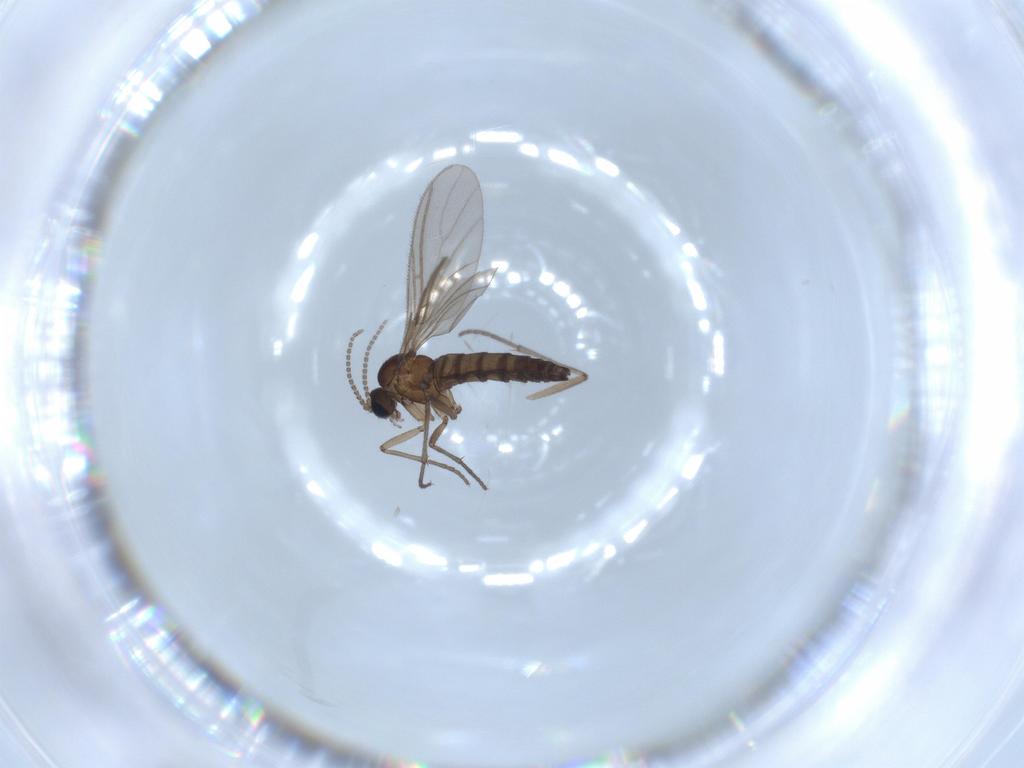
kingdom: Animalia
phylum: Arthropoda
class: Insecta
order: Diptera
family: Sciaridae
